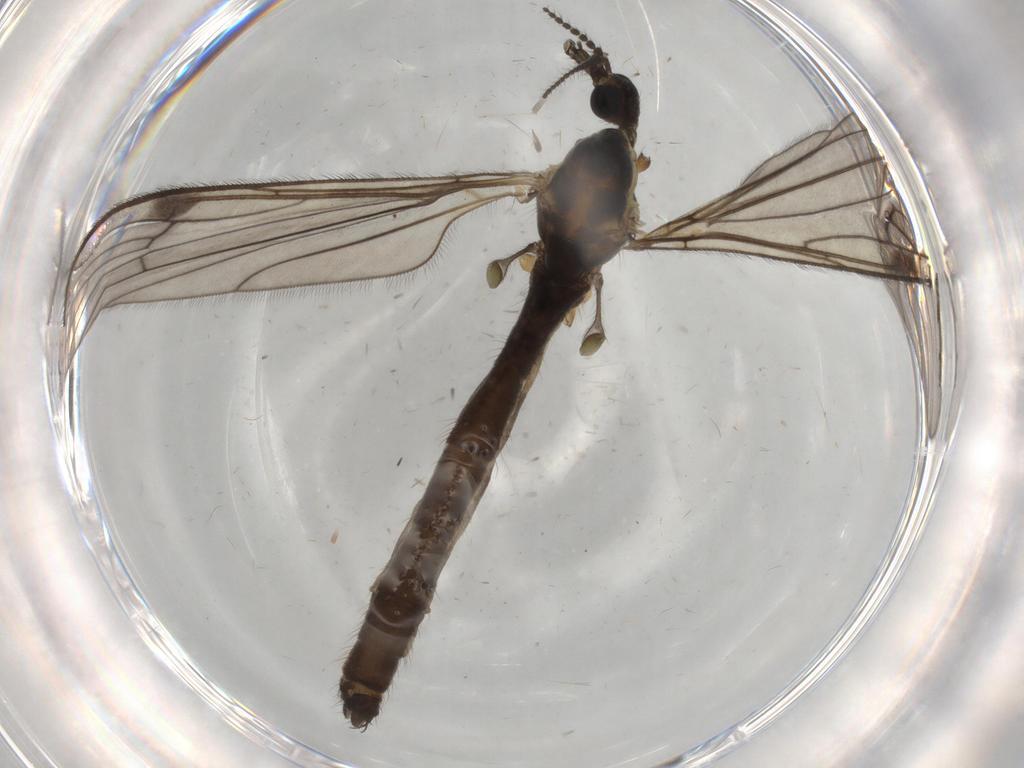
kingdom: Animalia
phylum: Arthropoda
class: Insecta
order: Diptera
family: Limoniidae
